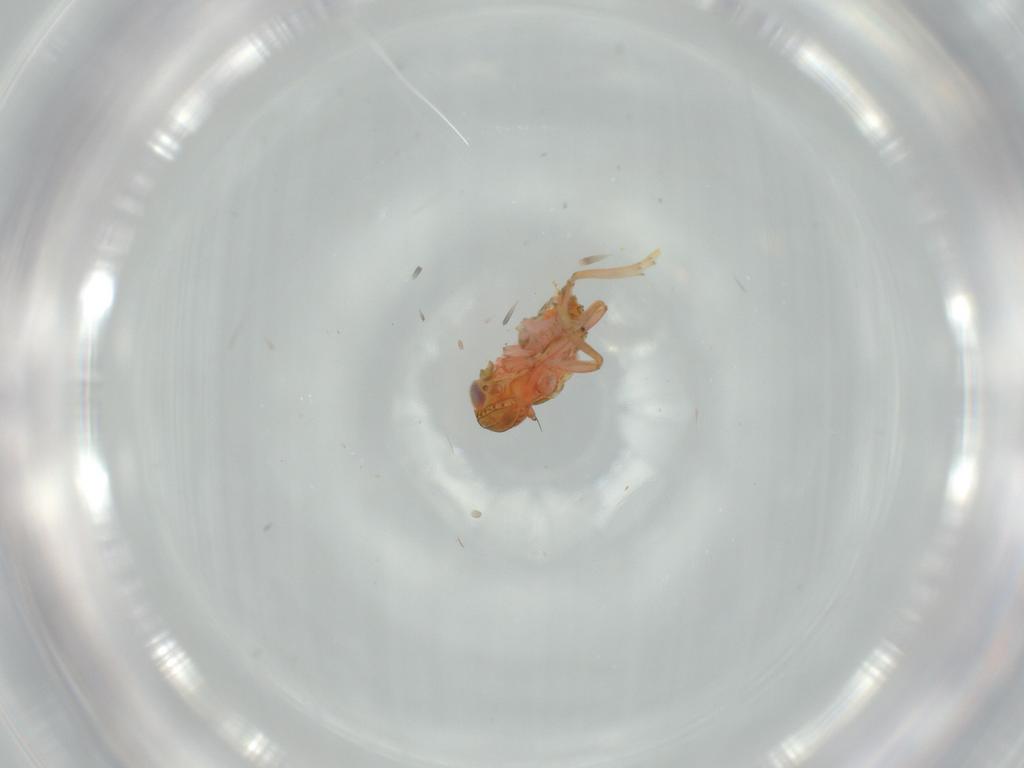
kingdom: Animalia
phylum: Arthropoda
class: Insecta
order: Hemiptera
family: Issidae
